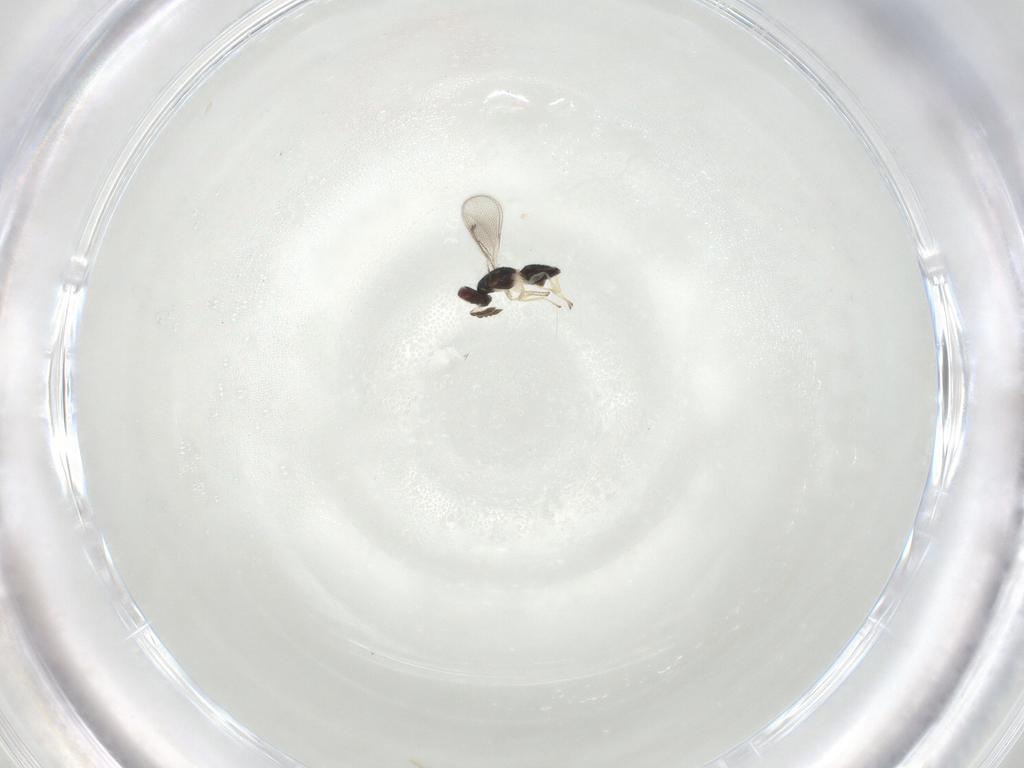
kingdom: Animalia
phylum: Arthropoda
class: Insecta
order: Blattodea
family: Ectobiidae
